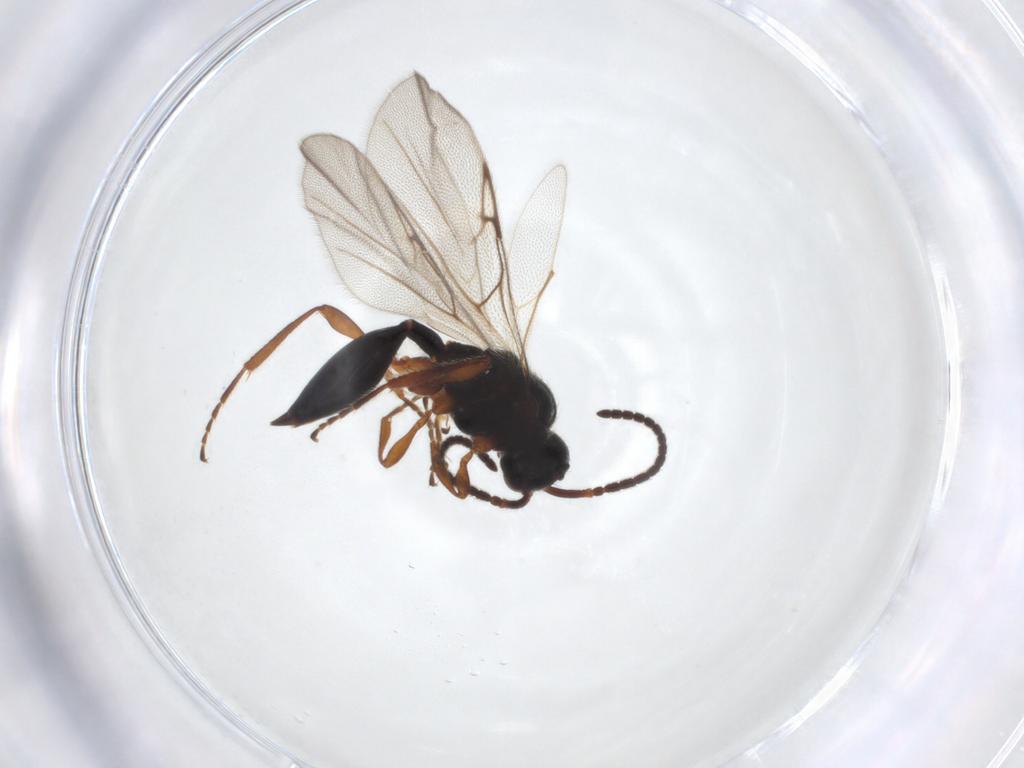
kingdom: Animalia
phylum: Arthropoda
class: Insecta
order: Hymenoptera
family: Diapriidae
